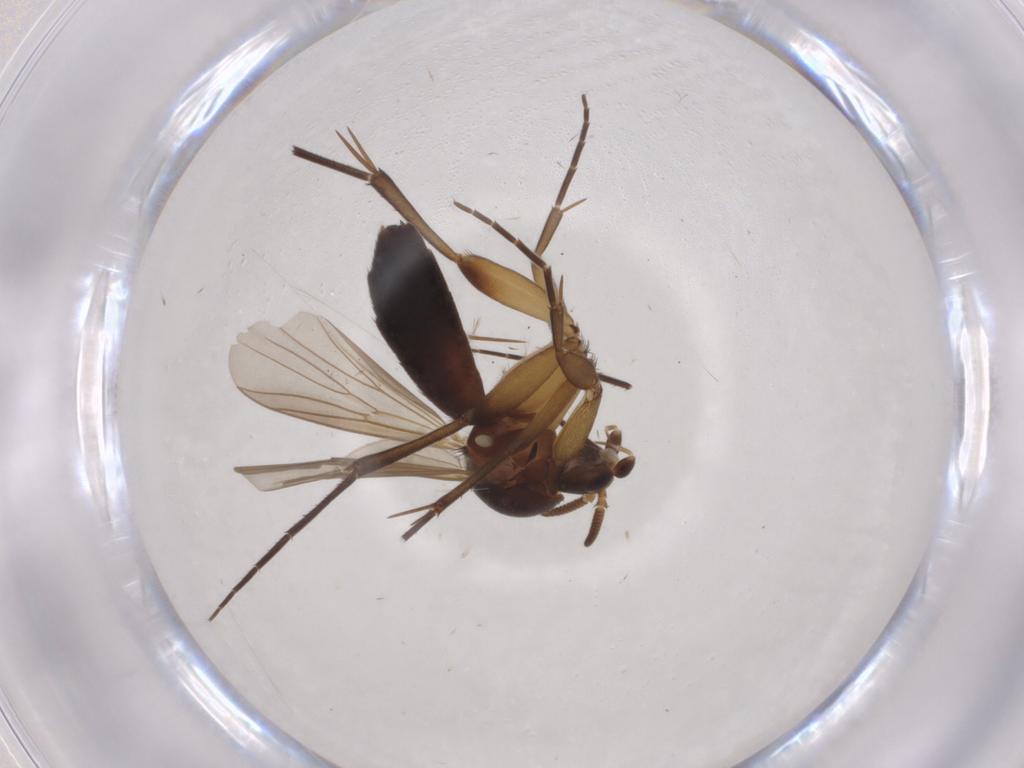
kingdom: Animalia
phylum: Arthropoda
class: Insecta
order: Diptera
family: Mycetophilidae
